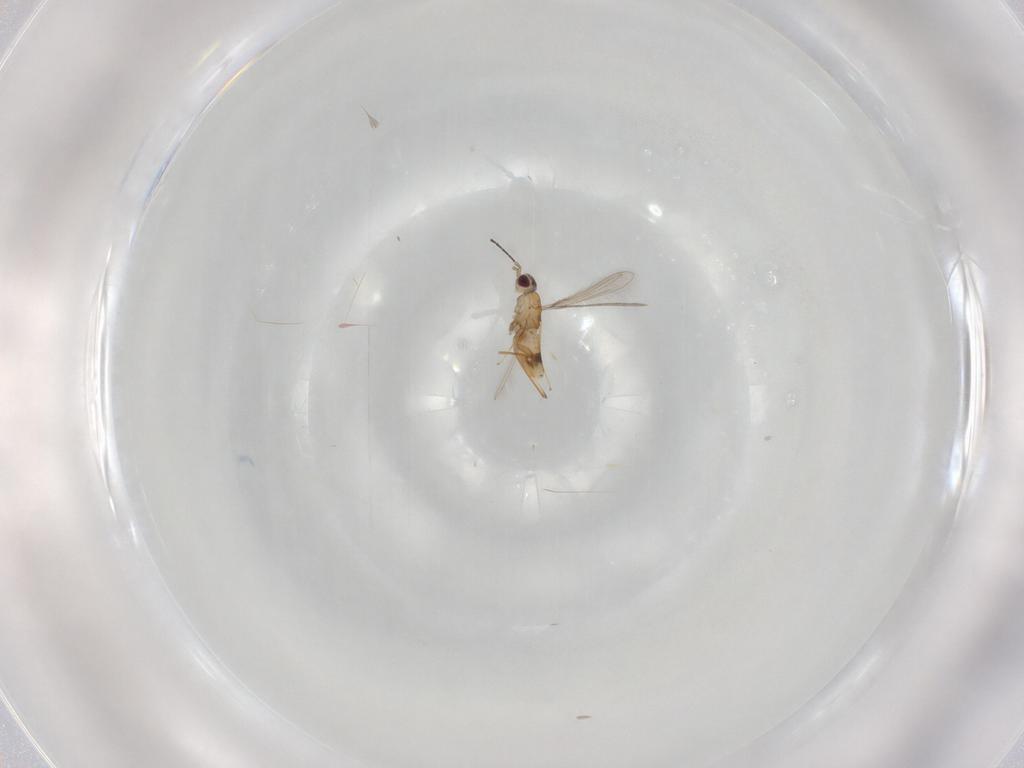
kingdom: Animalia
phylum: Arthropoda
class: Insecta
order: Hymenoptera
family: Mymaridae
